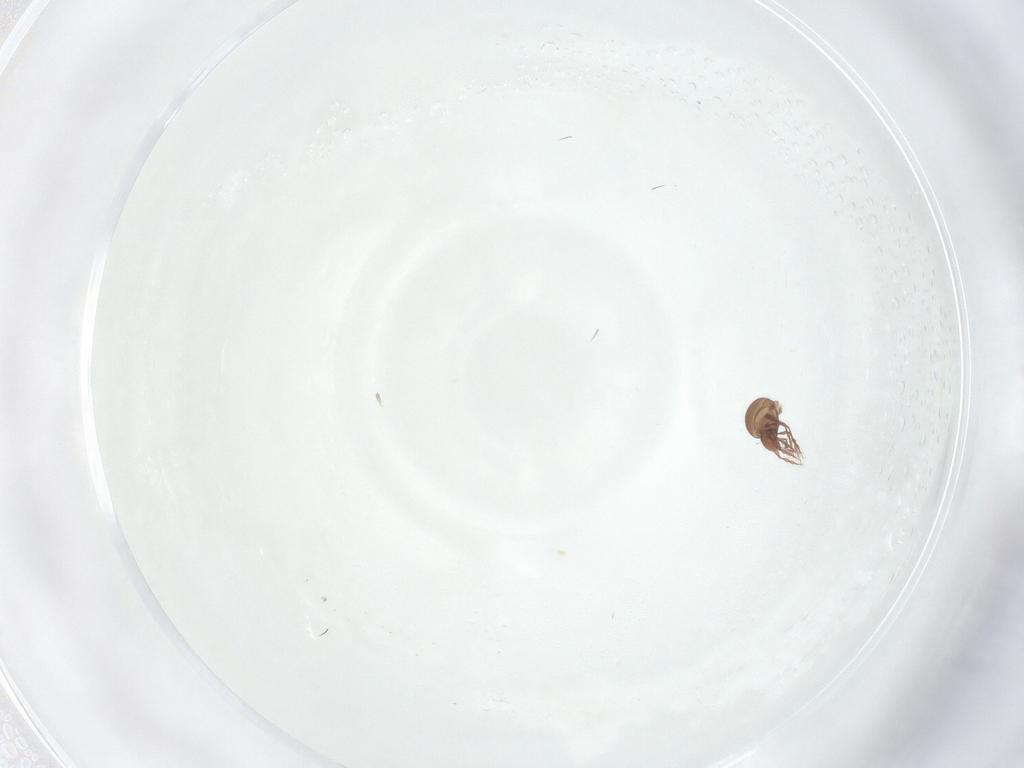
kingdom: Animalia
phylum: Arthropoda
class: Arachnida
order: Sarcoptiformes
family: Oppiidae
